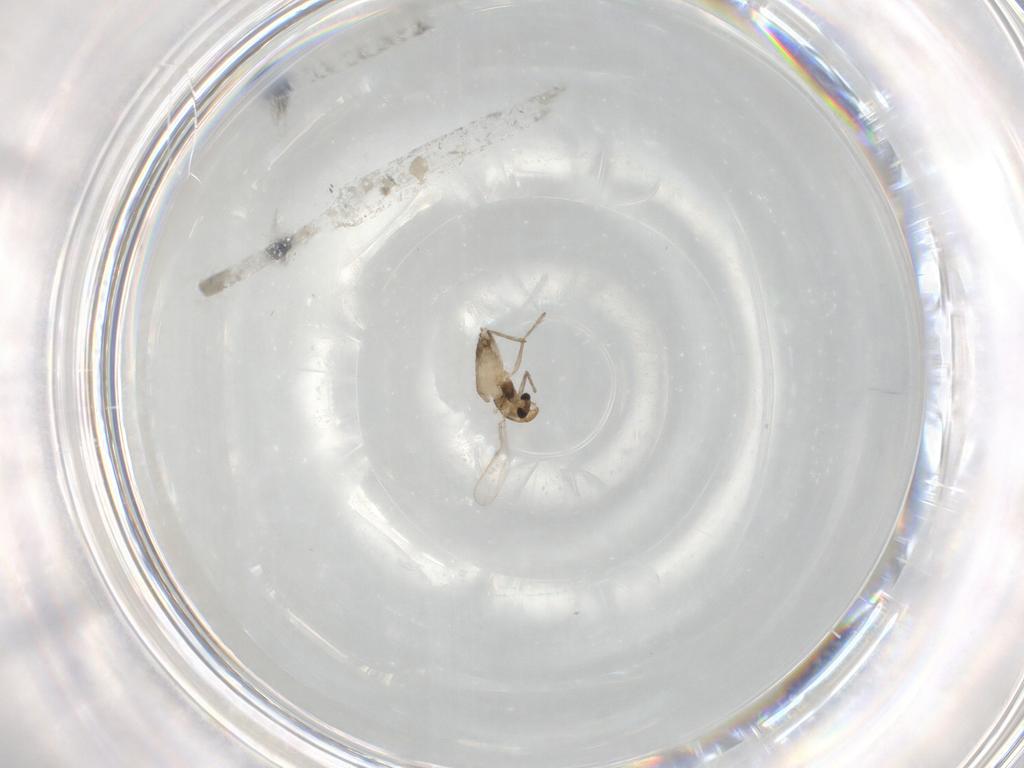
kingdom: Animalia
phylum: Arthropoda
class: Insecta
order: Diptera
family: Chironomidae
